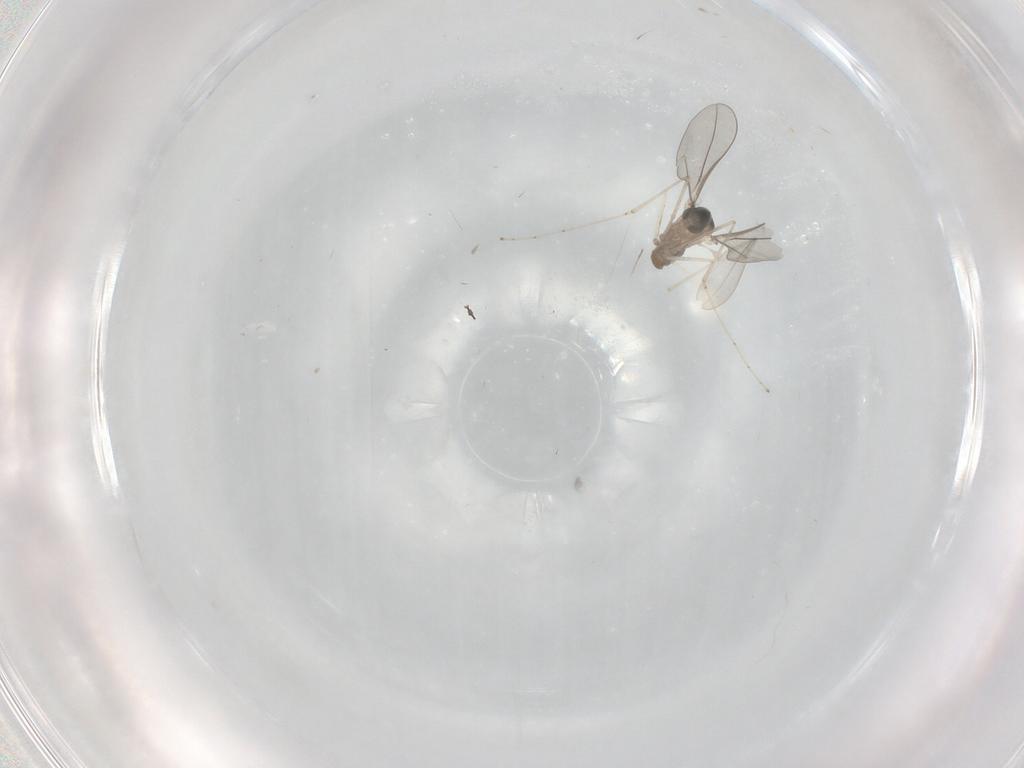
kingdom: Animalia
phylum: Arthropoda
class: Insecta
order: Diptera
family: Cecidomyiidae
